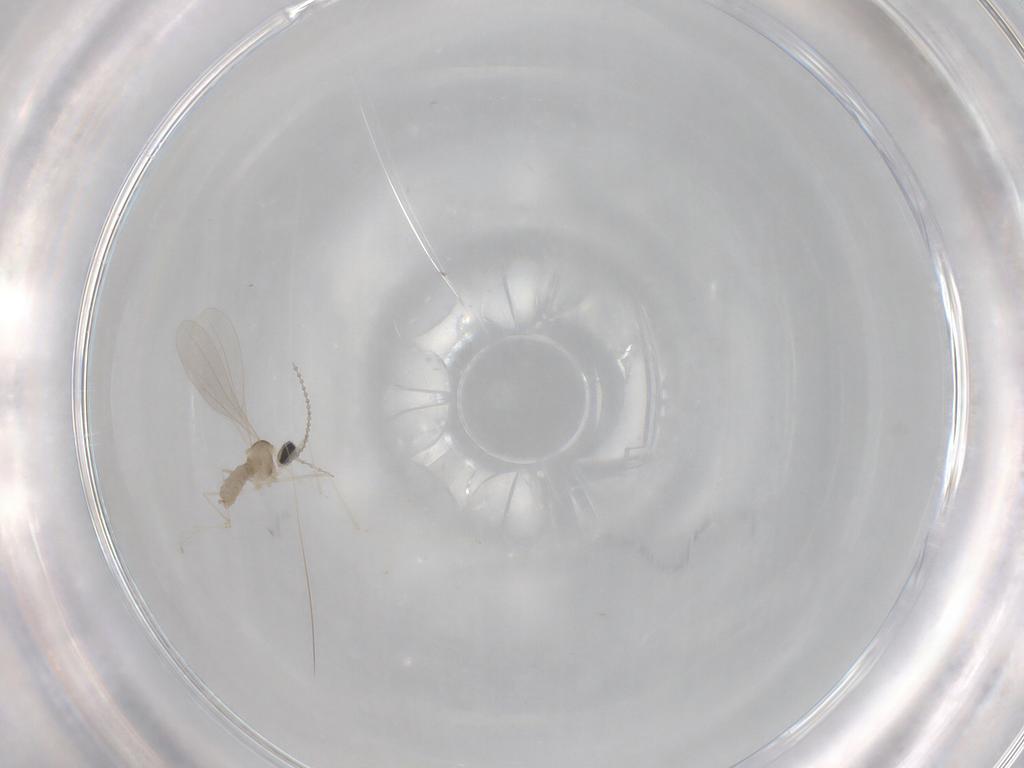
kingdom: Animalia
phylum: Arthropoda
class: Insecta
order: Diptera
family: Cecidomyiidae
